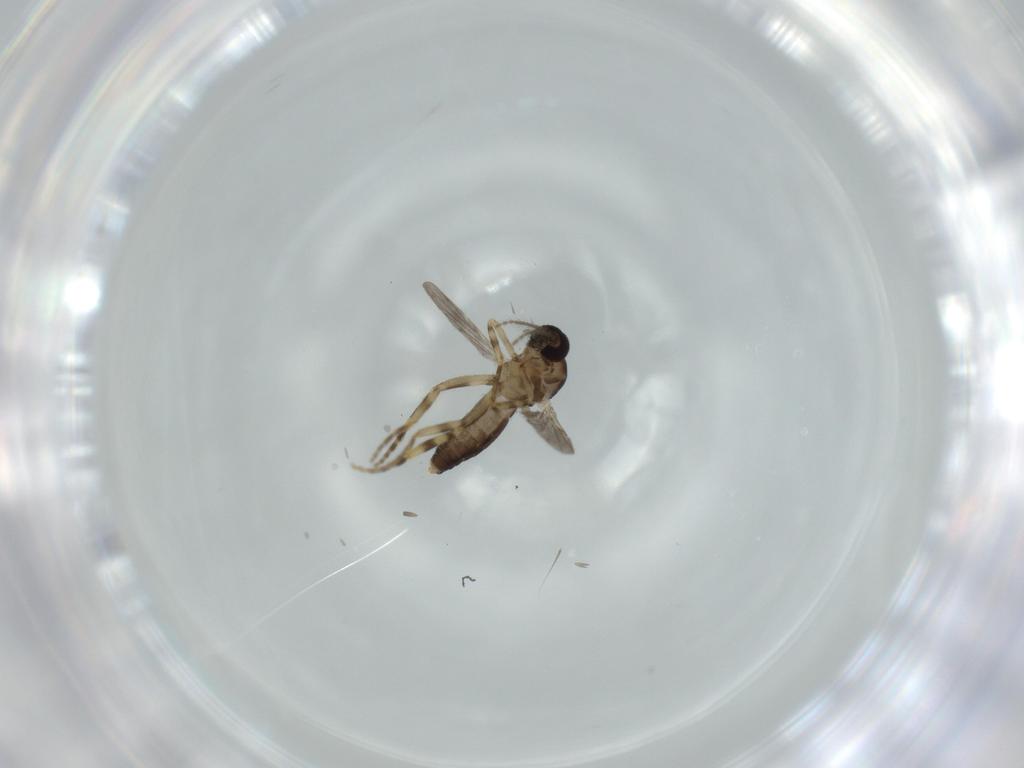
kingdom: Animalia
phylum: Arthropoda
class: Insecta
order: Diptera
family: Ceratopogonidae
